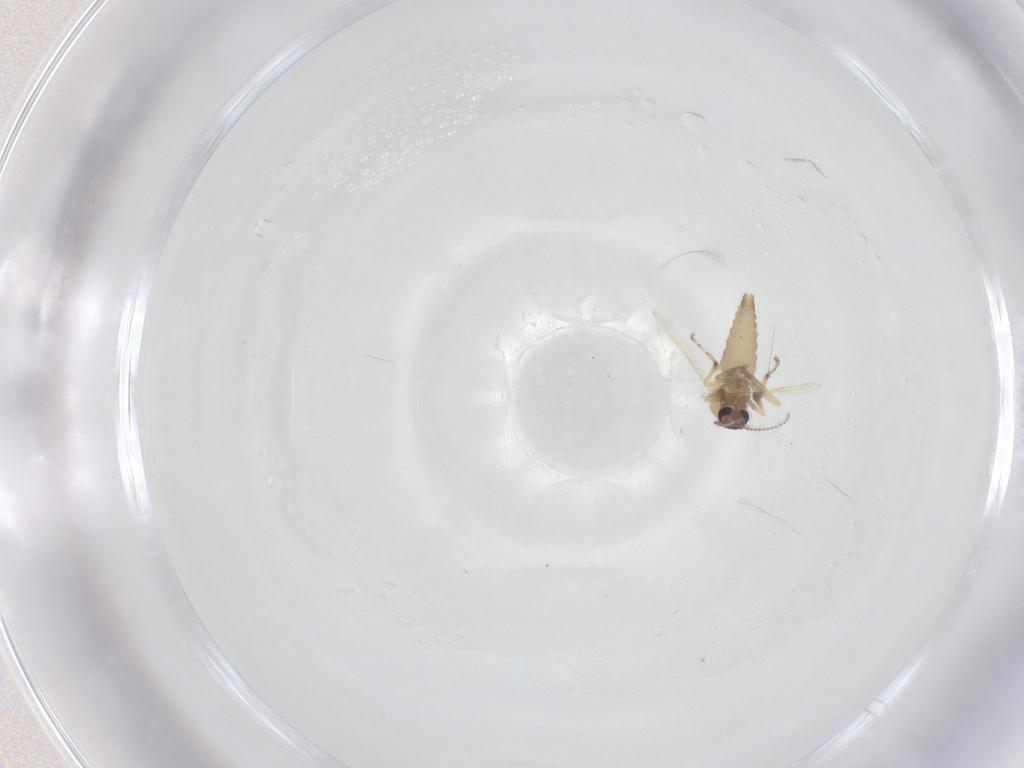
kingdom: Animalia
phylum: Arthropoda
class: Insecta
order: Diptera
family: Ceratopogonidae
